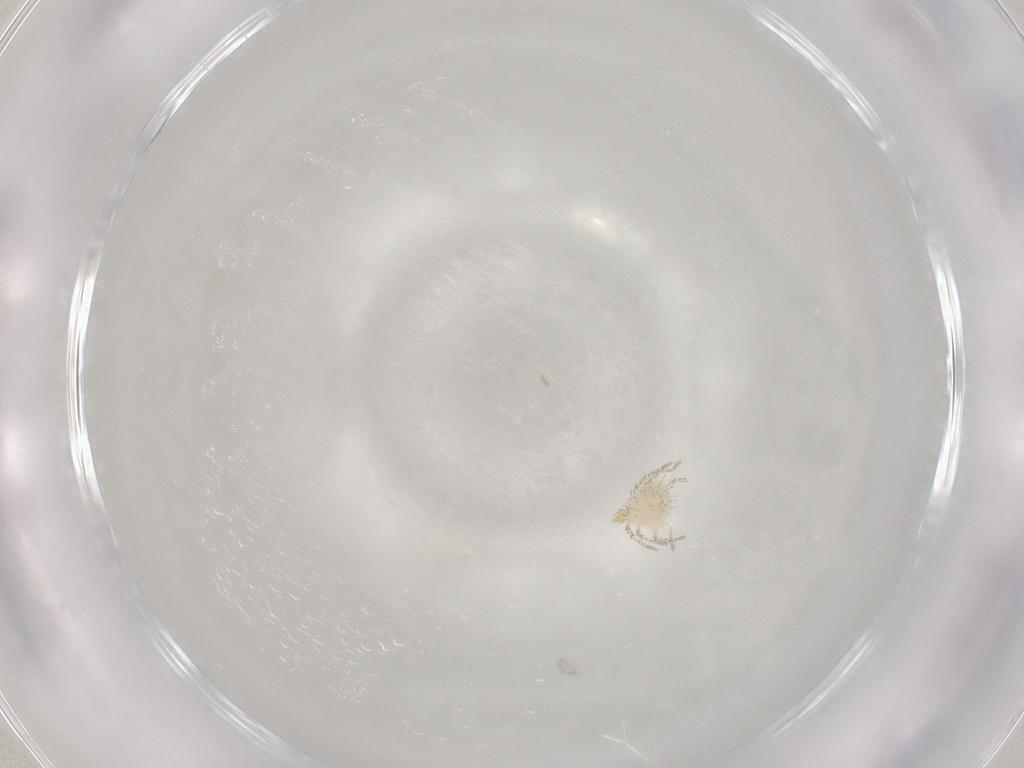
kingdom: Animalia
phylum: Arthropoda
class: Arachnida
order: Trombidiformes
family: Erythraeidae
